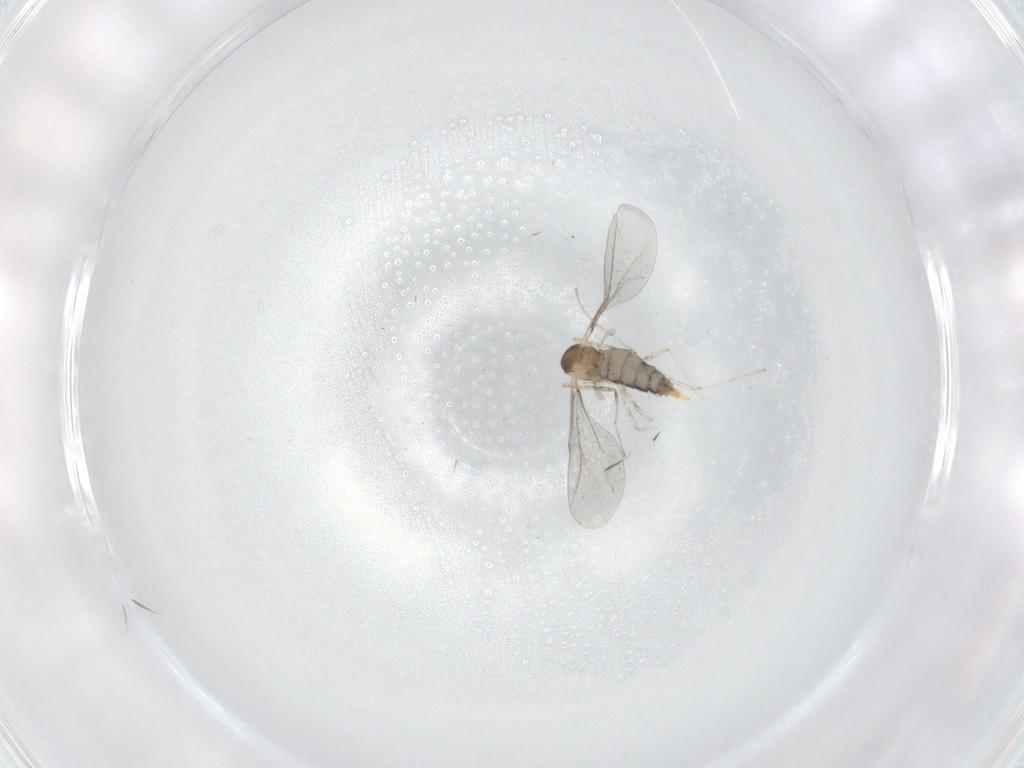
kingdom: Animalia
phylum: Arthropoda
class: Insecta
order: Diptera
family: Cecidomyiidae
